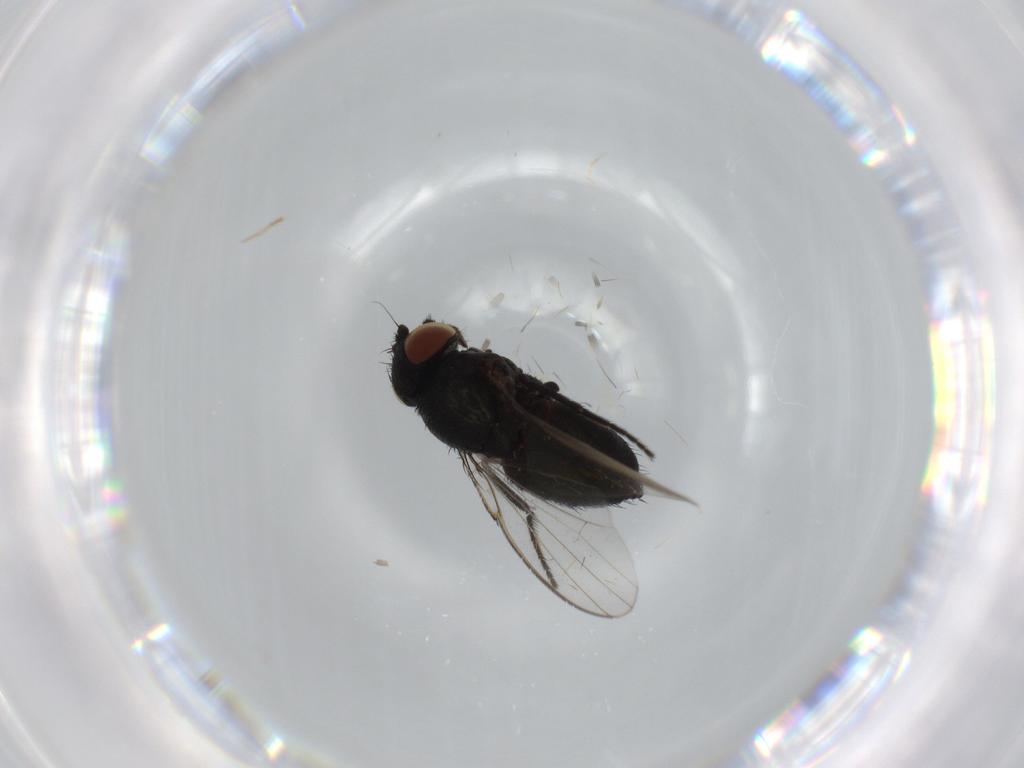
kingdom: Animalia
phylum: Arthropoda
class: Insecta
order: Diptera
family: Milichiidae
